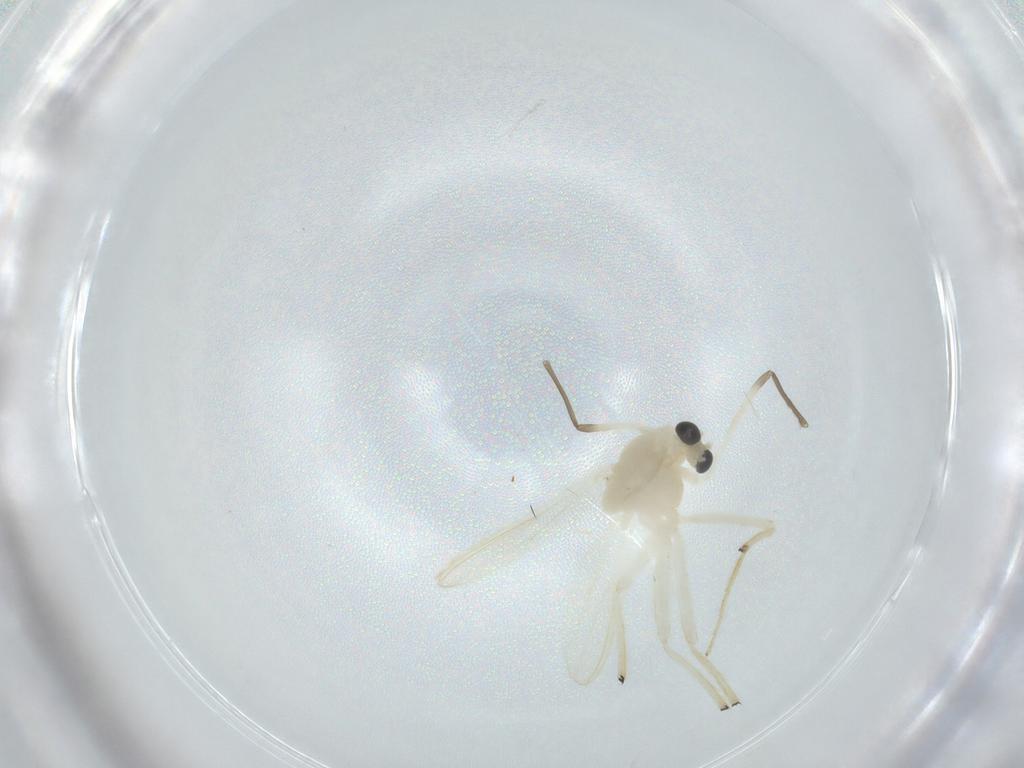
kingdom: Animalia
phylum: Arthropoda
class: Insecta
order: Diptera
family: Chironomidae
